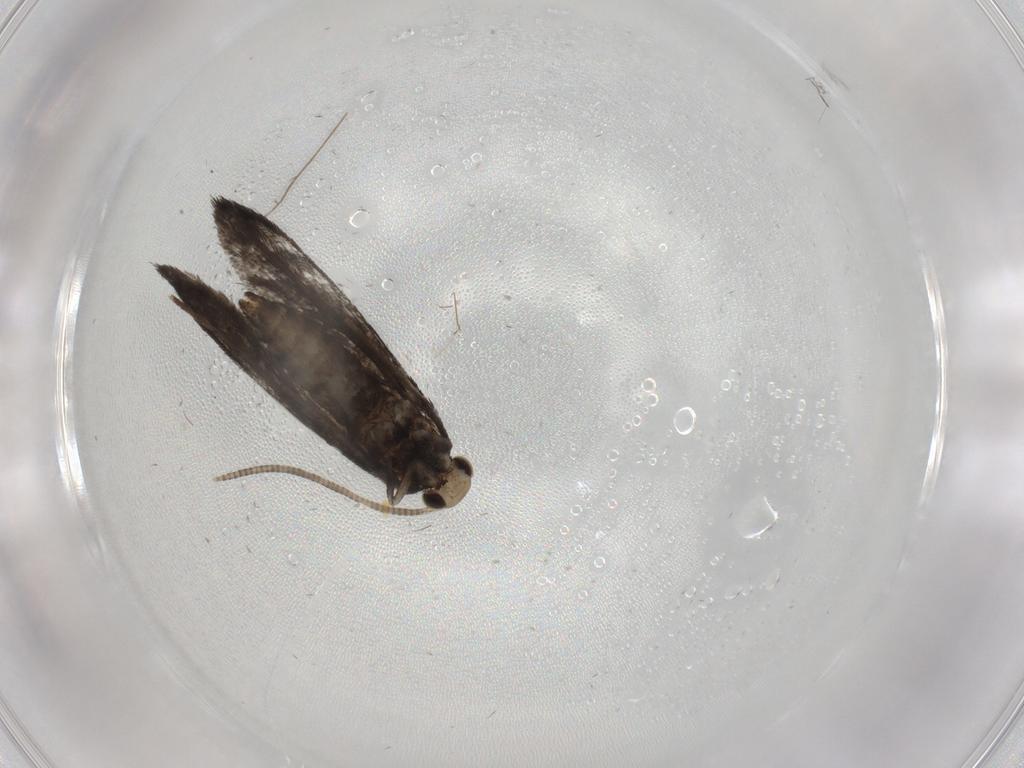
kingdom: Animalia
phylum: Arthropoda
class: Insecta
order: Lepidoptera
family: Nymphalidae
